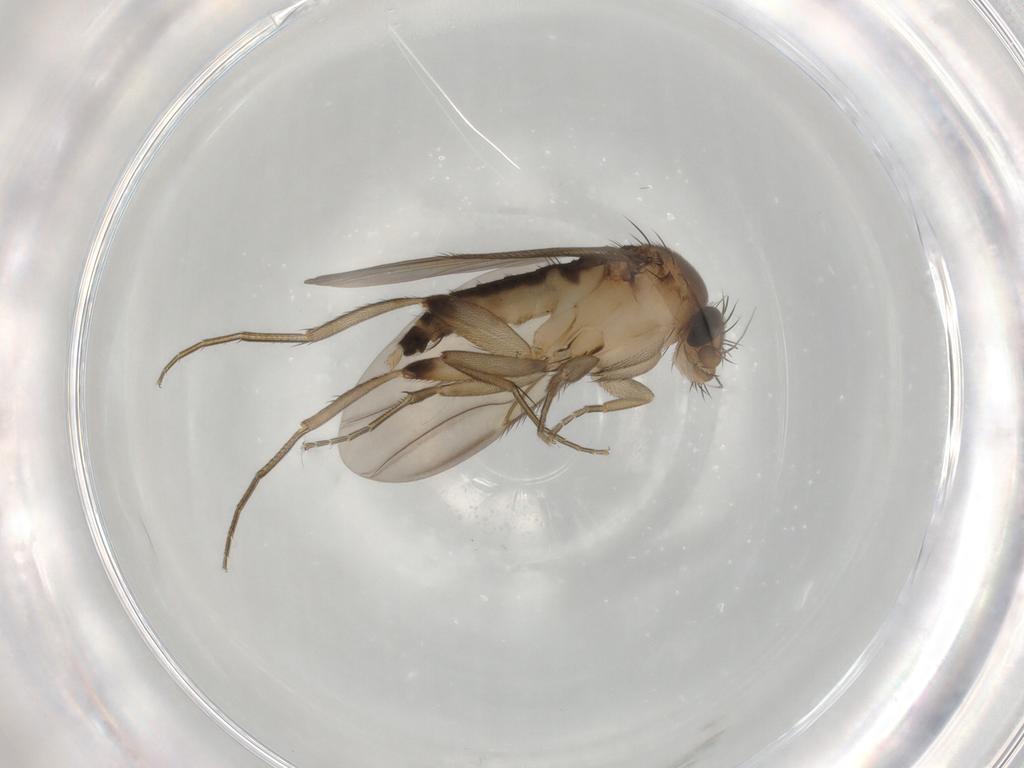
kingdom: Animalia
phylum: Arthropoda
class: Insecta
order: Diptera
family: Phoridae
